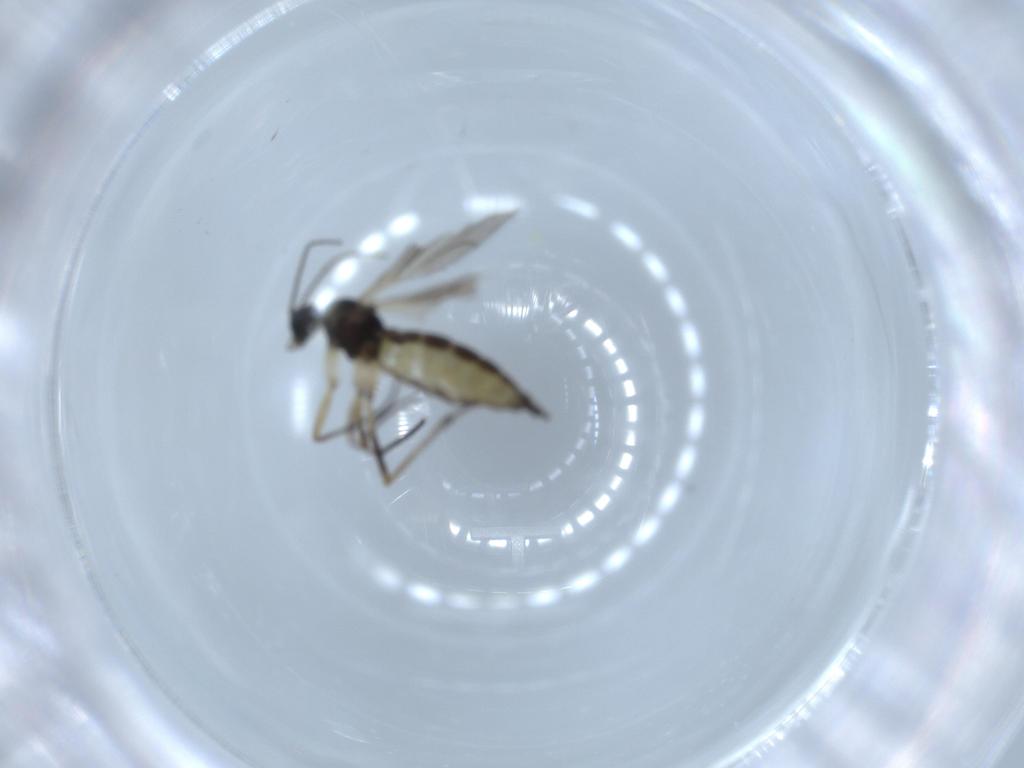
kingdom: Animalia
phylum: Arthropoda
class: Insecta
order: Diptera
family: Sciaridae
